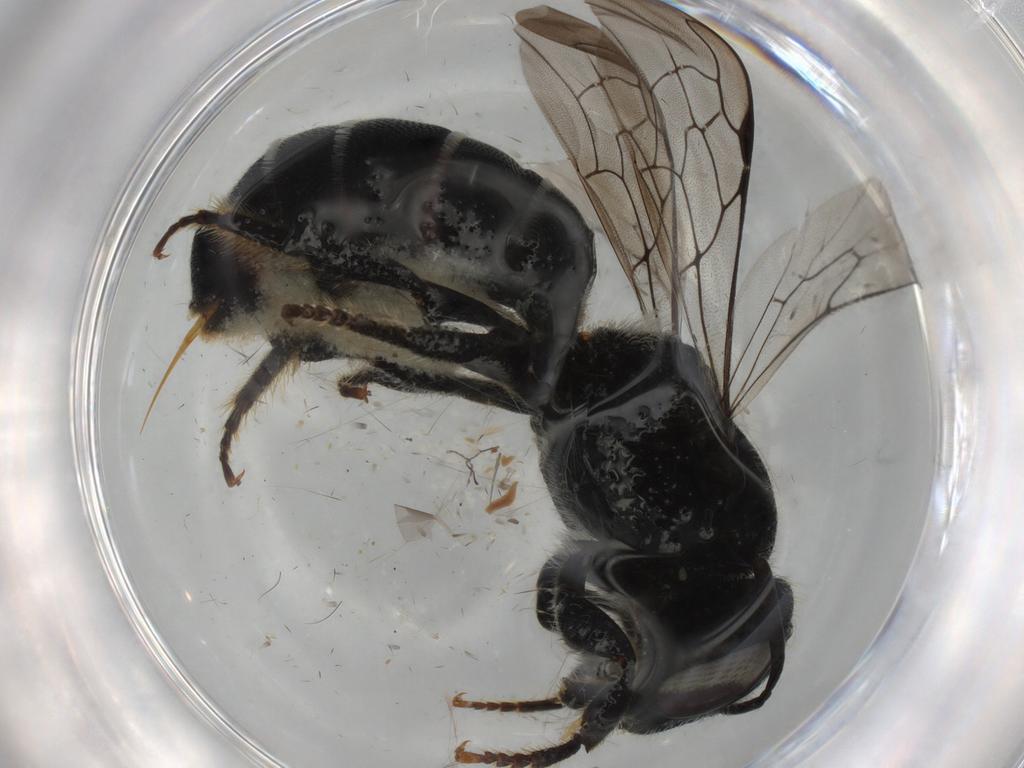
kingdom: Animalia
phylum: Arthropoda
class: Insecta
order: Hymenoptera
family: Megachilidae
